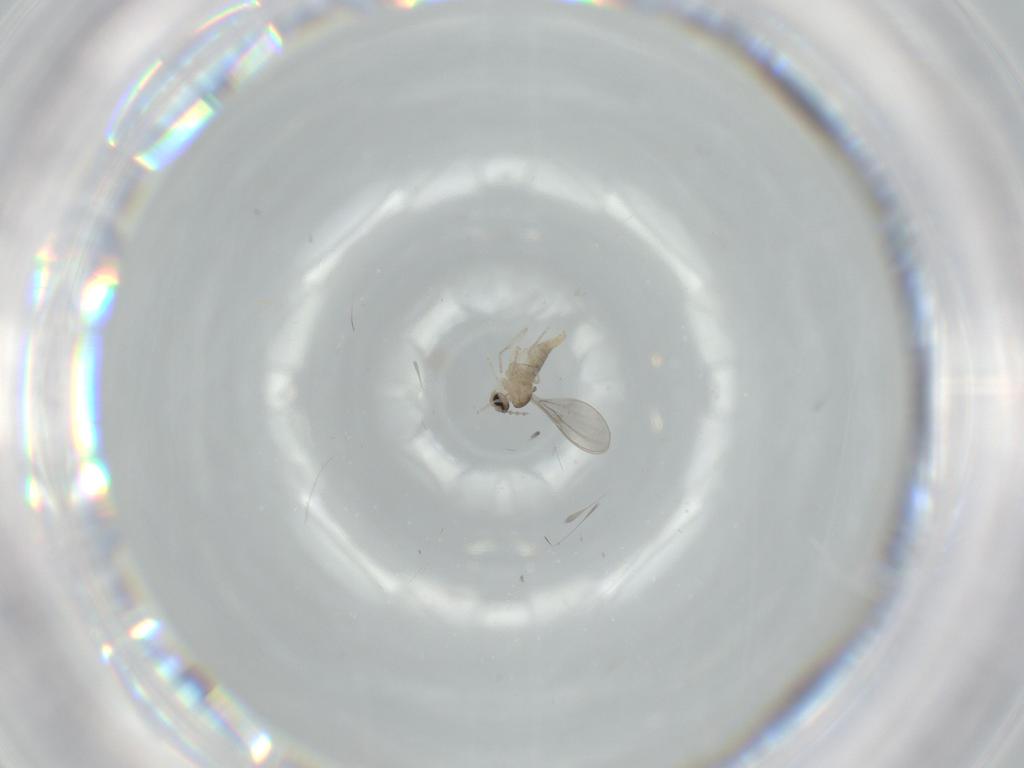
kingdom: Animalia
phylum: Arthropoda
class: Insecta
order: Diptera
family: Cecidomyiidae
